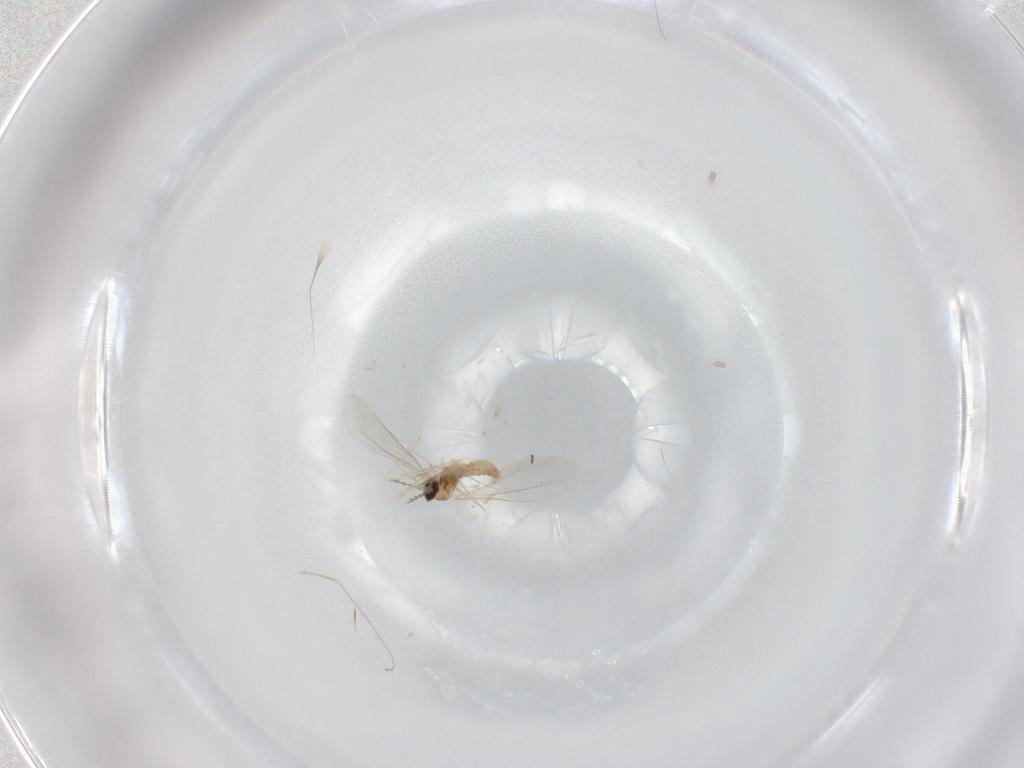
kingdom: Animalia
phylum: Arthropoda
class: Insecta
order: Diptera
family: Cecidomyiidae
